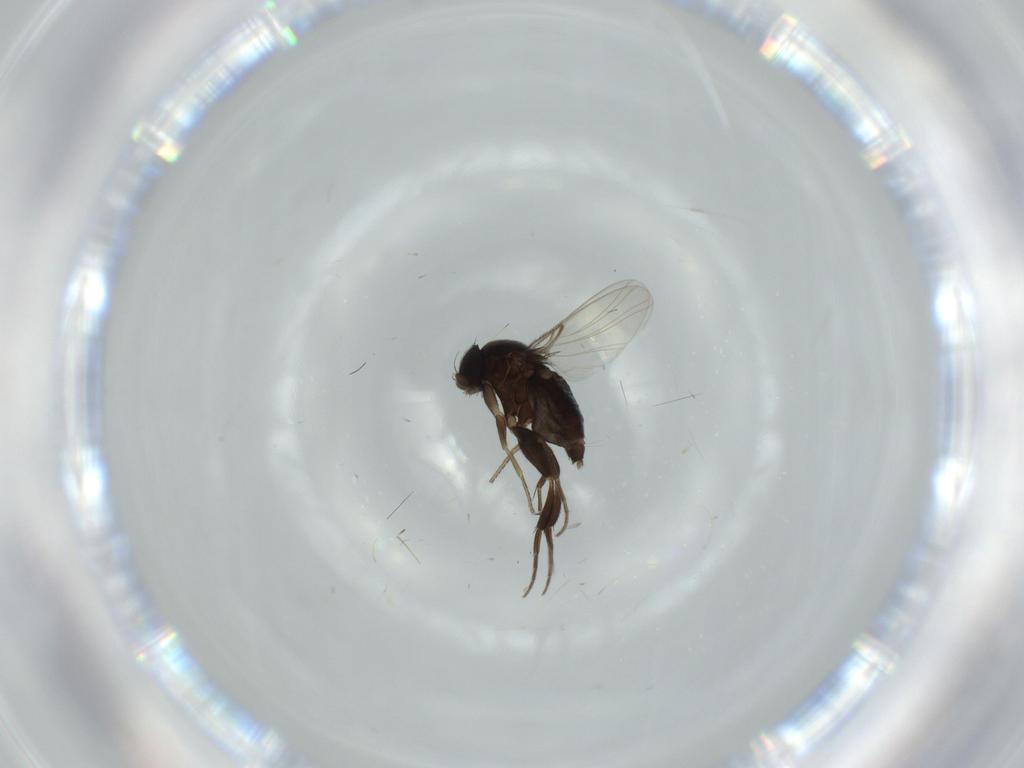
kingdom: Animalia
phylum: Arthropoda
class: Insecta
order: Diptera
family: Phoridae
